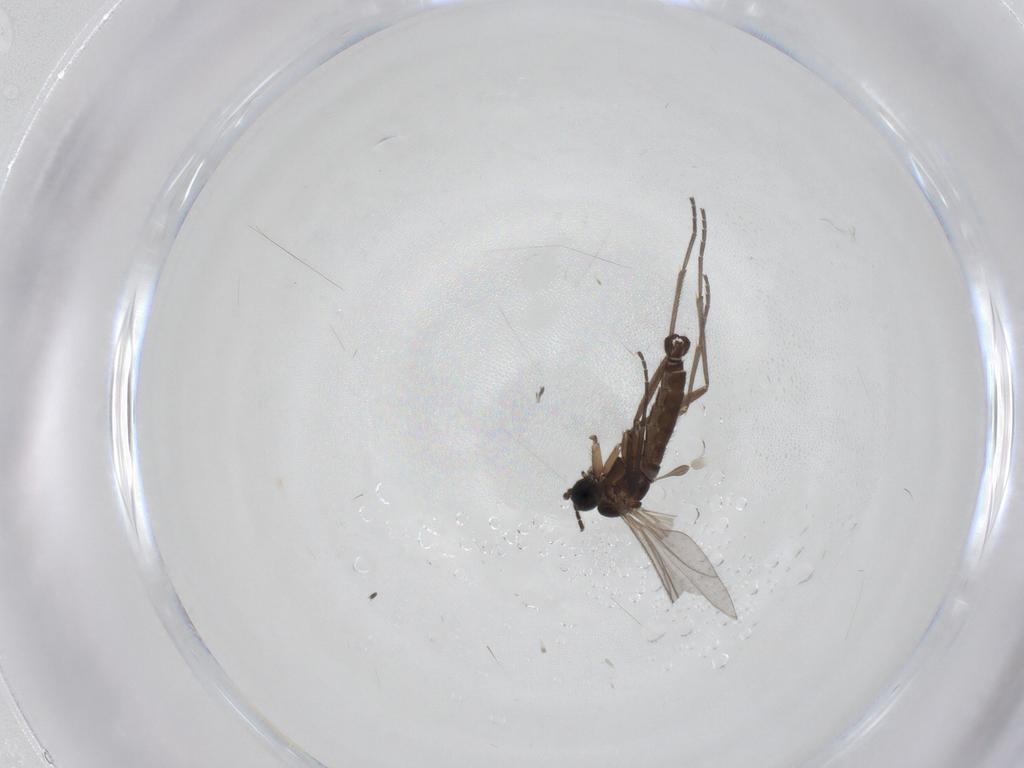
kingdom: Animalia
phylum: Arthropoda
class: Insecta
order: Diptera
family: Sciaridae
